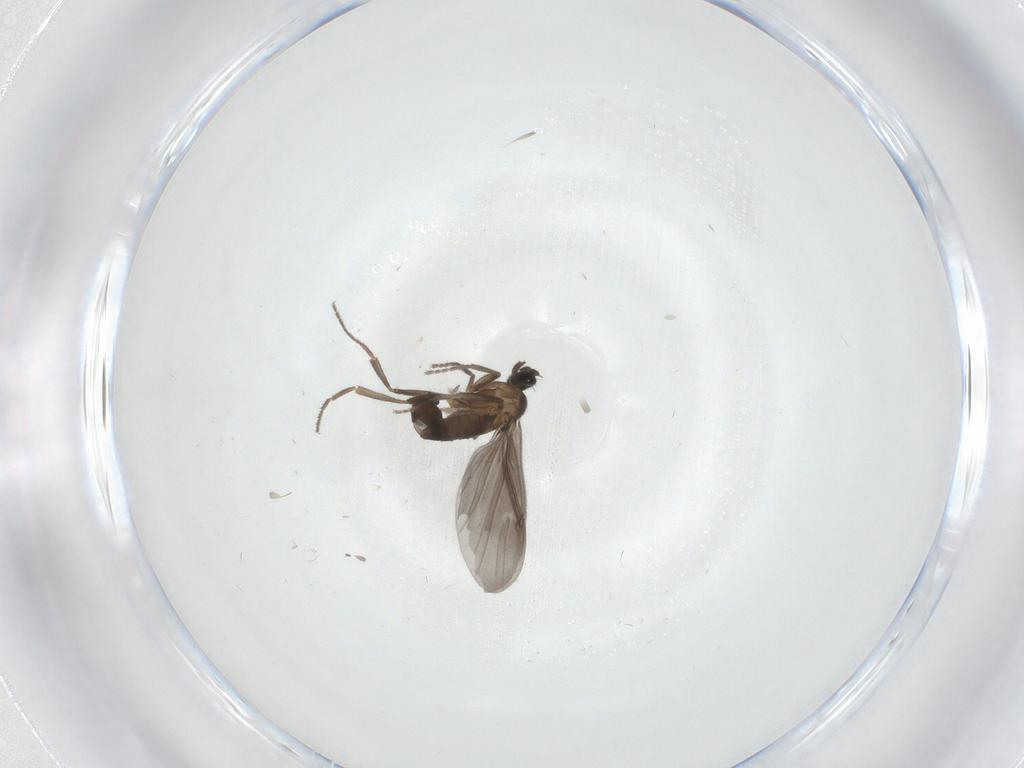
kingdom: Animalia
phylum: Arthropoda
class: Insecta
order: Diptera
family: Phoridae
